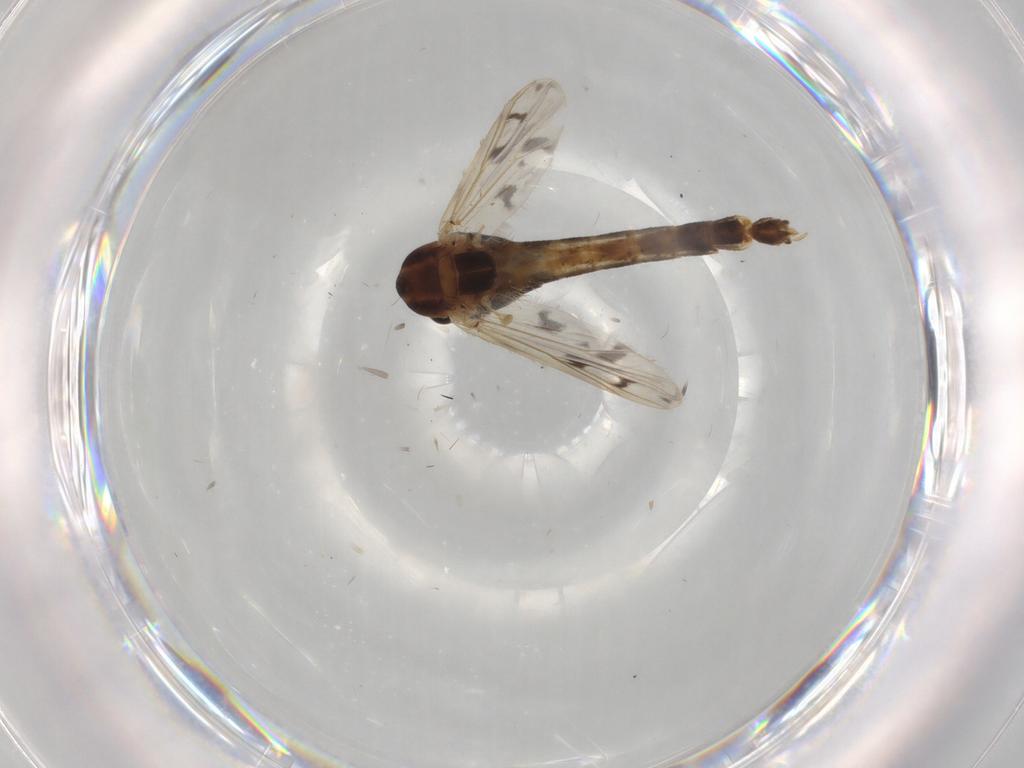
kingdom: Animalia
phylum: Arthropoda
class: Insecta
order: Diptera
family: Chironomidae
